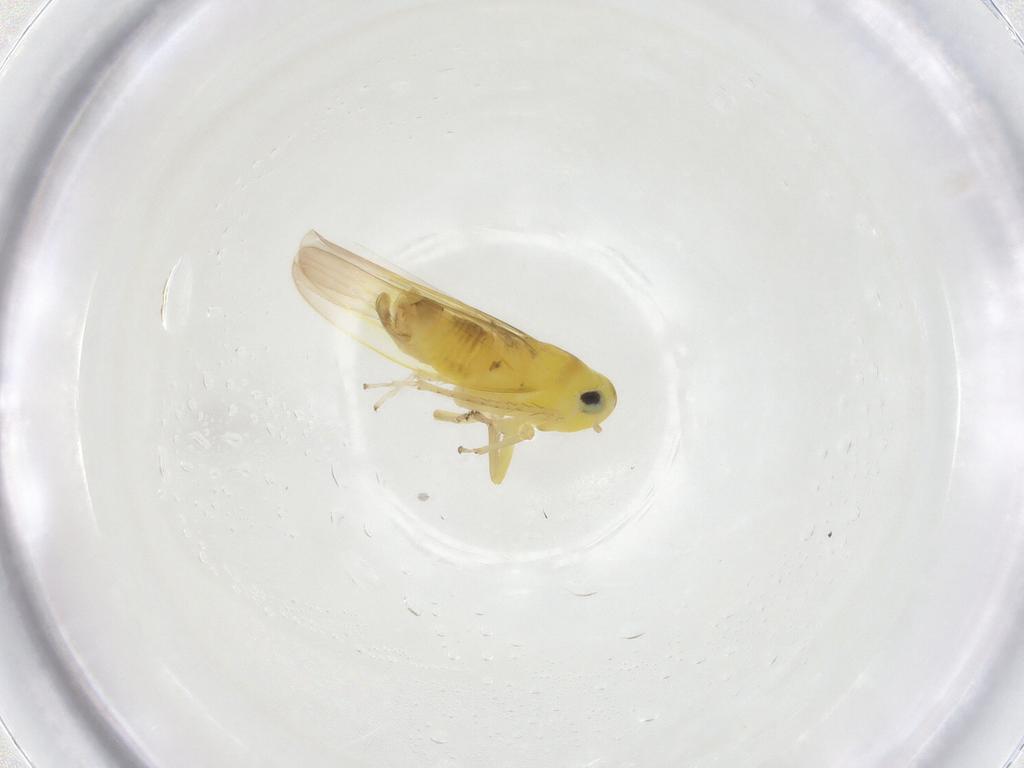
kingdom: Animalia
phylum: Arthropoda
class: Insecta
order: Hemiptera
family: Cicadellidae
